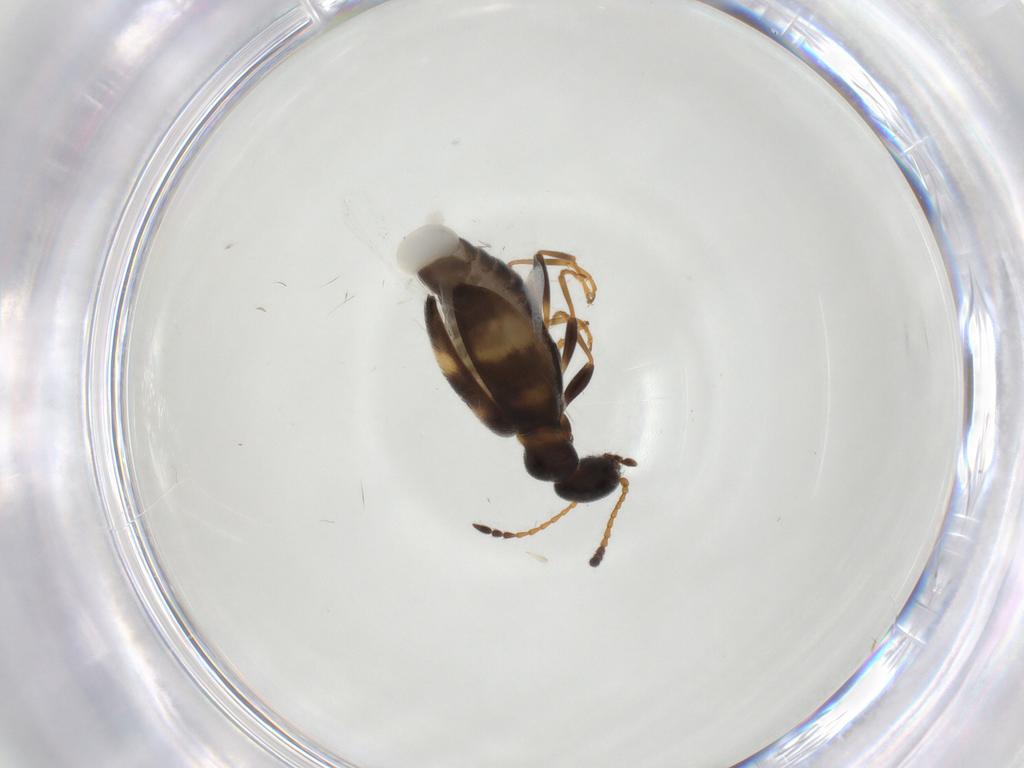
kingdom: Animalia
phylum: Arthropoda
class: Insecta
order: Coleoptera
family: Anthicidae
